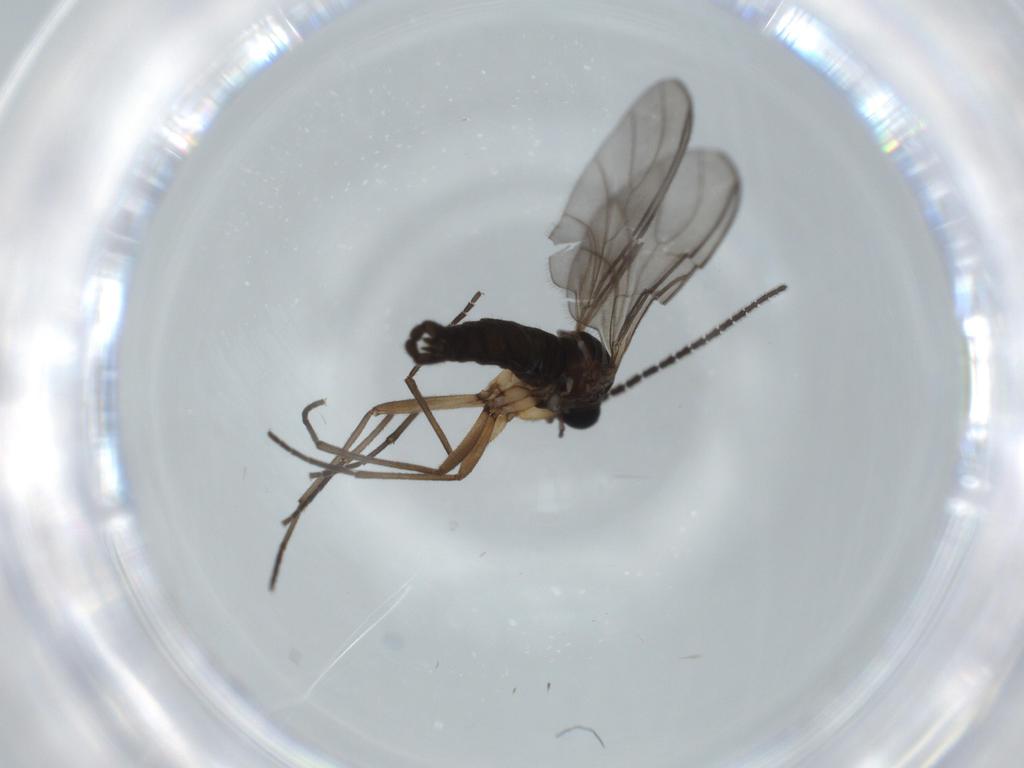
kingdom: Animalia
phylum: Arthropoda
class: Insecta
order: Diptera
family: Sciaridae
